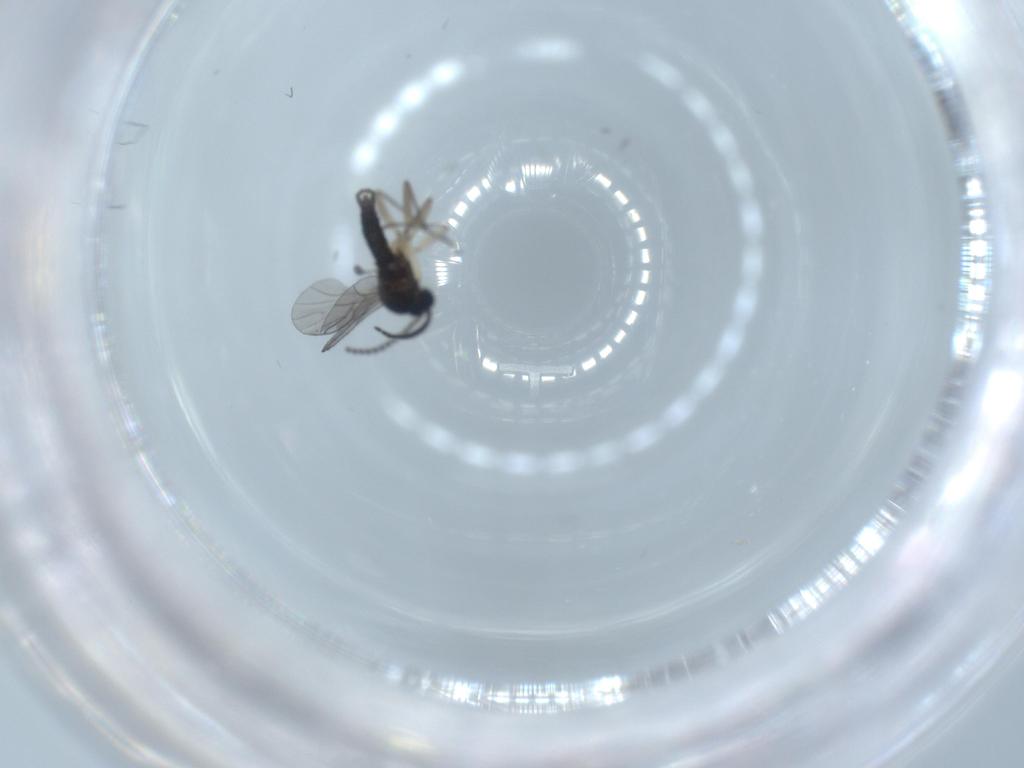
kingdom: Animalia
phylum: Arthropoda
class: Insecta
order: Diptera
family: Cecidomyiidae
